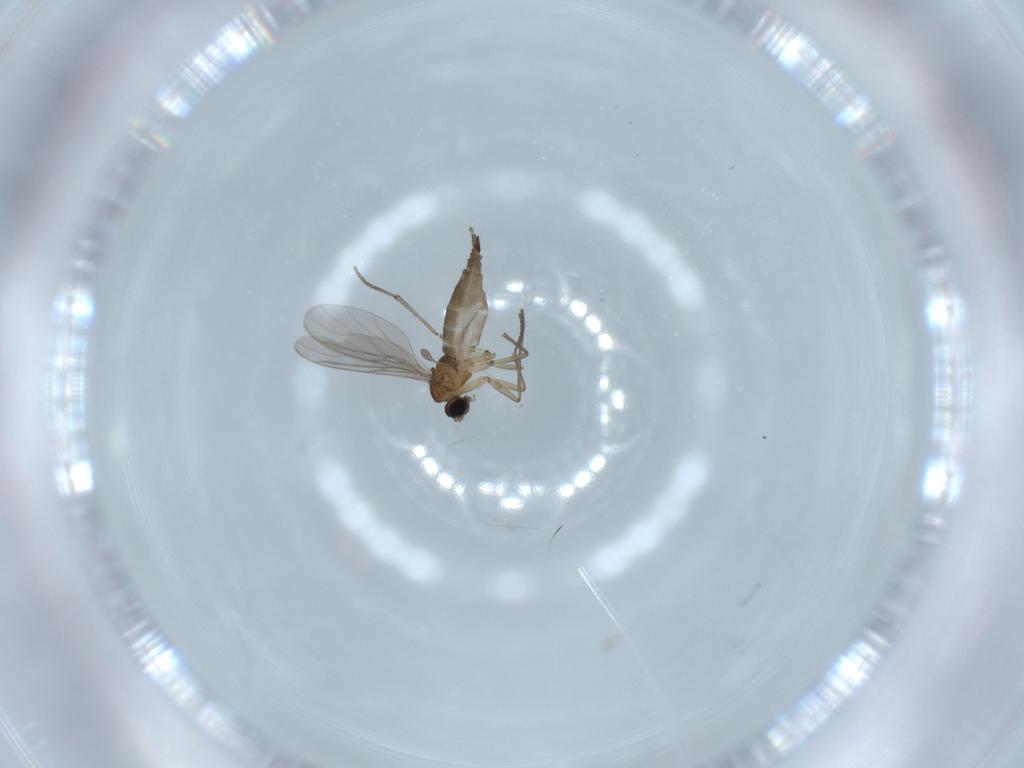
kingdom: Animalia
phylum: Arthropoda
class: Insecta
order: Diptera
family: Sciaridae
